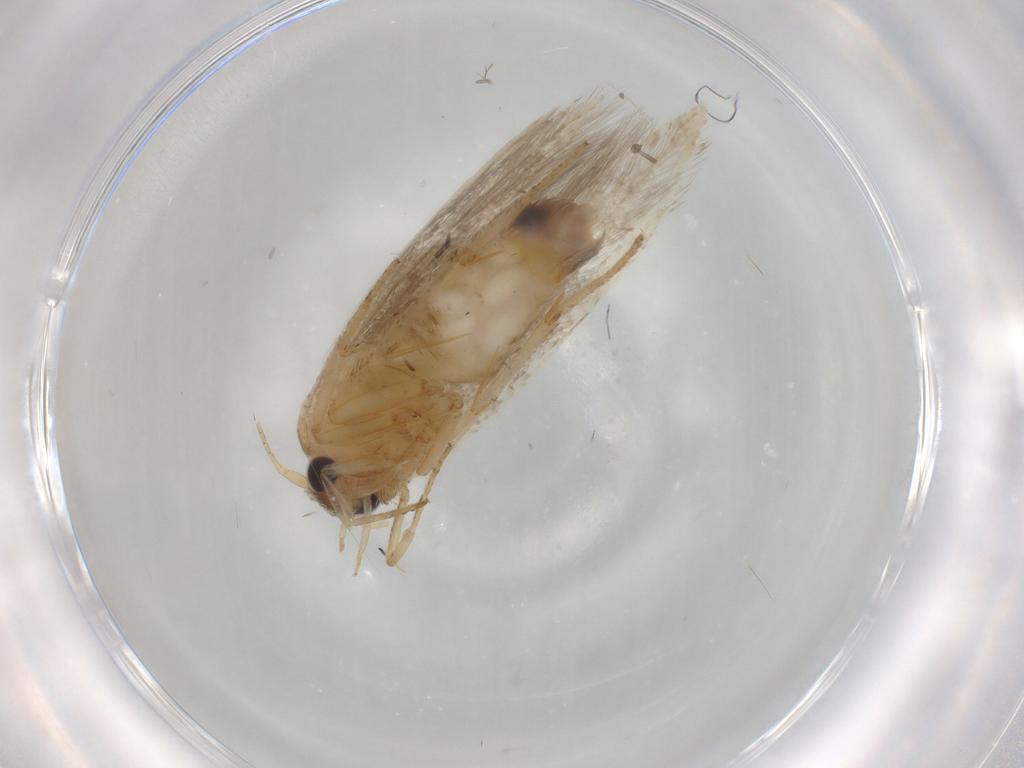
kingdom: Animalia
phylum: Arthropoda
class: Insecta
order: Lepidoptera
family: Blastobasidae
